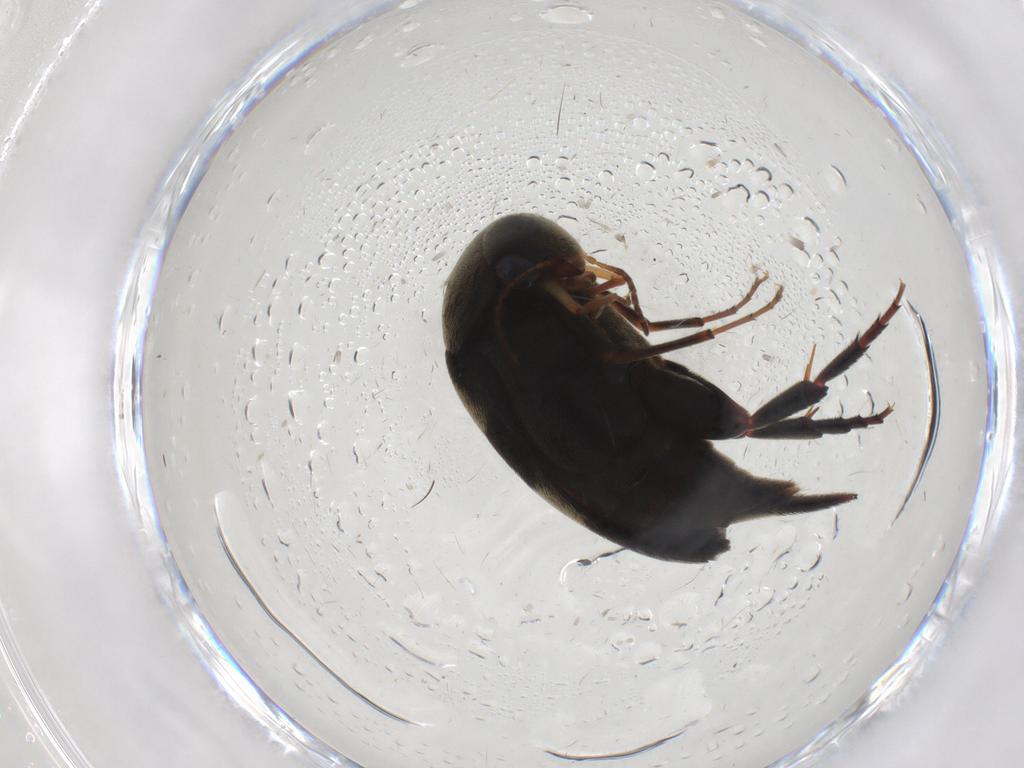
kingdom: Animalia
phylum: Arthropoda
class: Insecta
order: Coleoptera
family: Mordellidae
